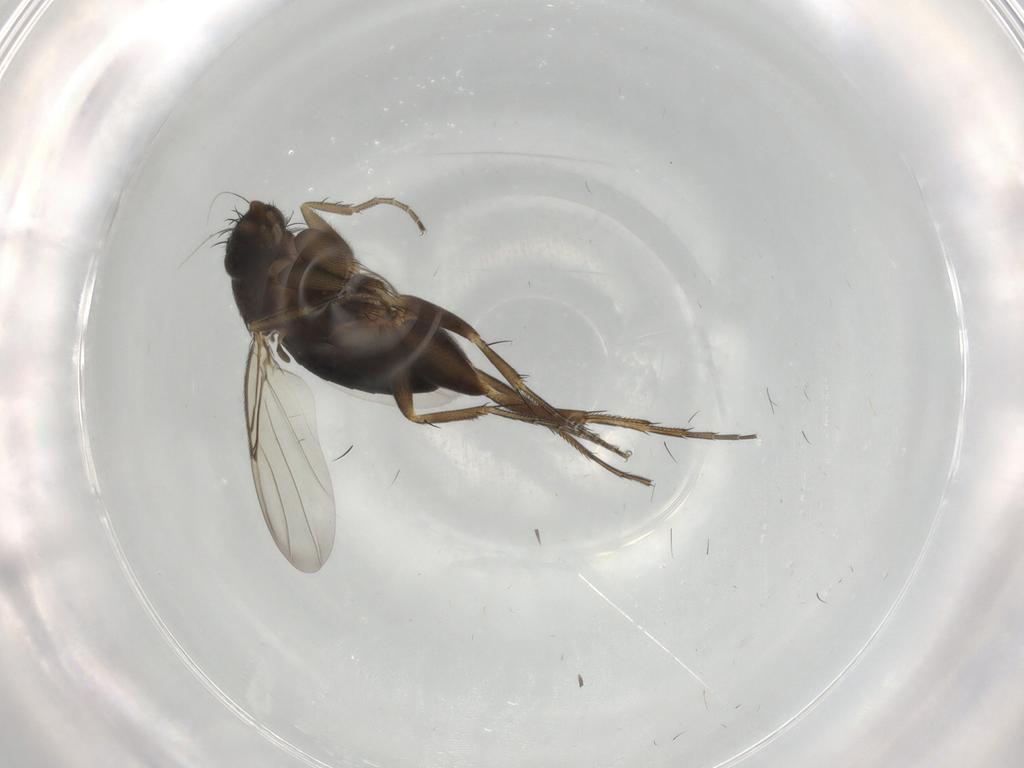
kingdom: Animalia
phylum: Arthropoda
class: Insecta
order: Diptera
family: Phoridae
